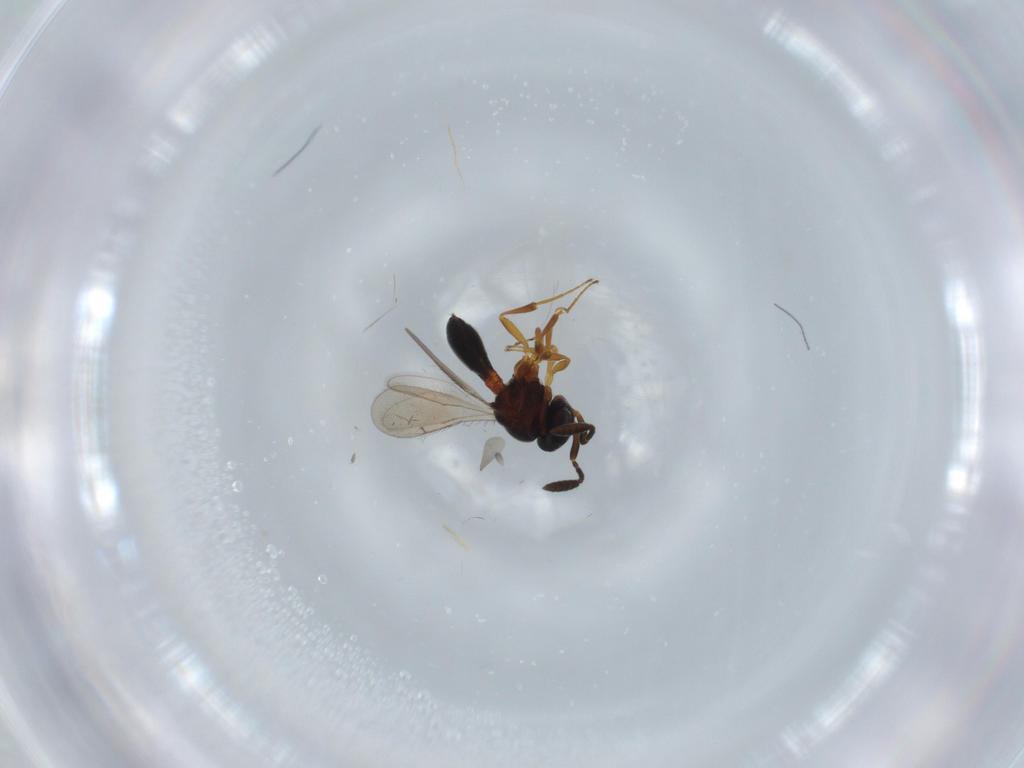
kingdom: Animalia
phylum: Arthropoda
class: Insecta
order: Hymenoptera
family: Scelionidae
